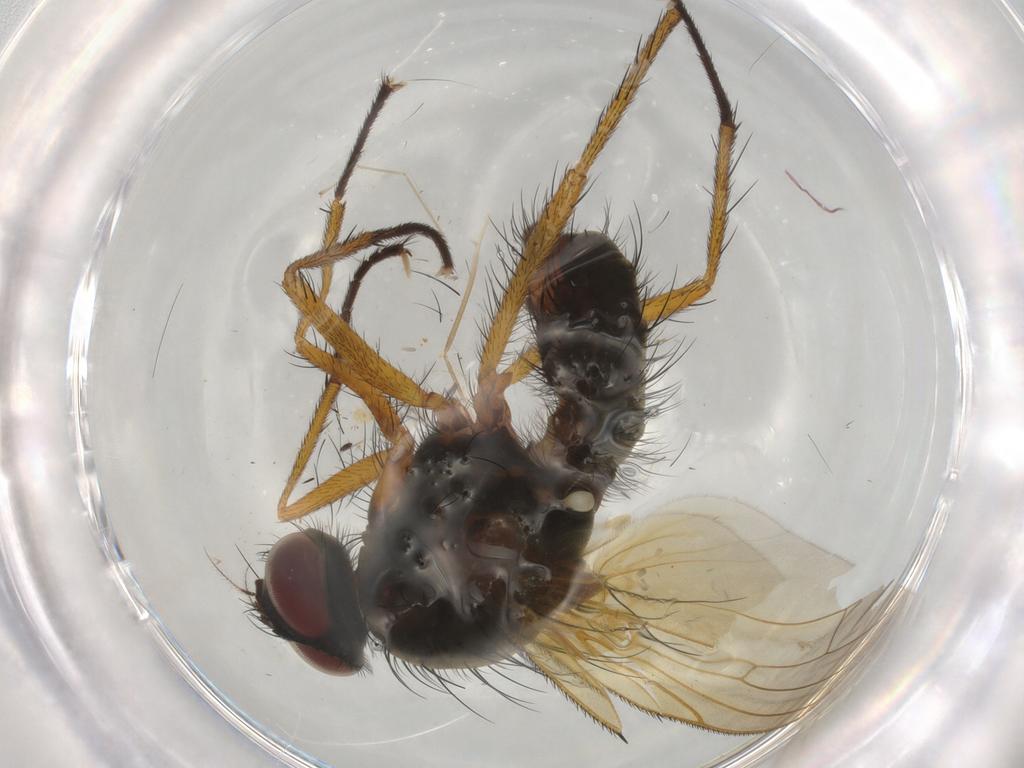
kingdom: Animalia
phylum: Arthropoda
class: Insecta
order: Diptera
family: Anthomyiidae
